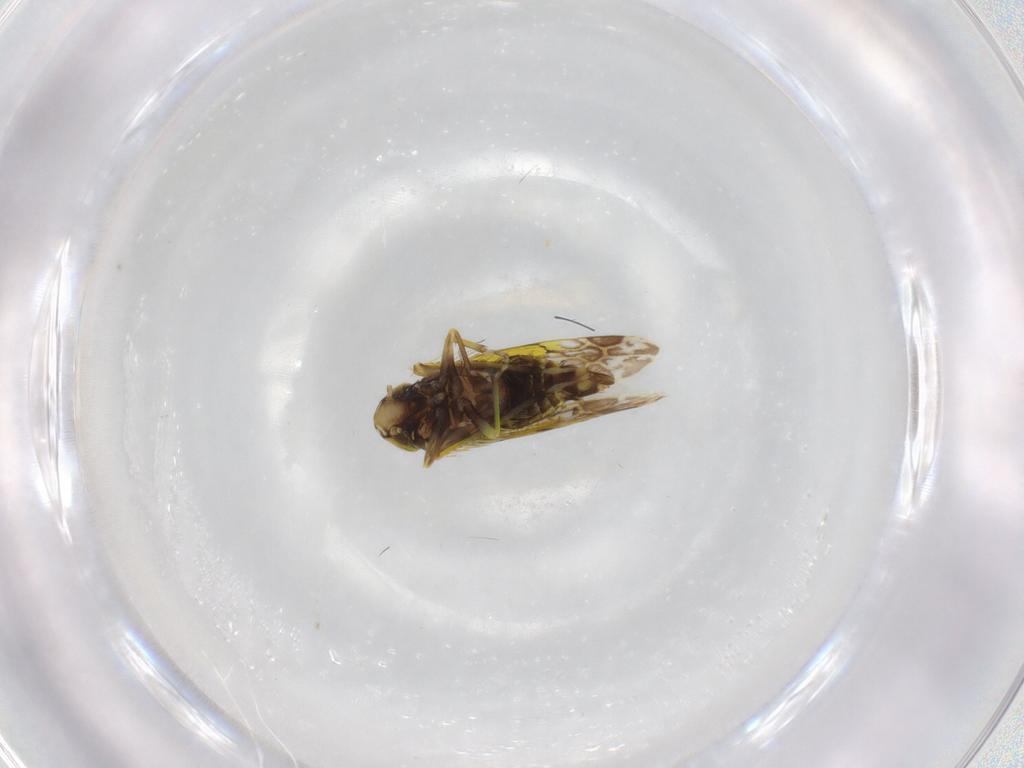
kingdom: Animalia
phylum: Arthropoda
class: Insecta
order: Hemiptera
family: Cicadellidae
